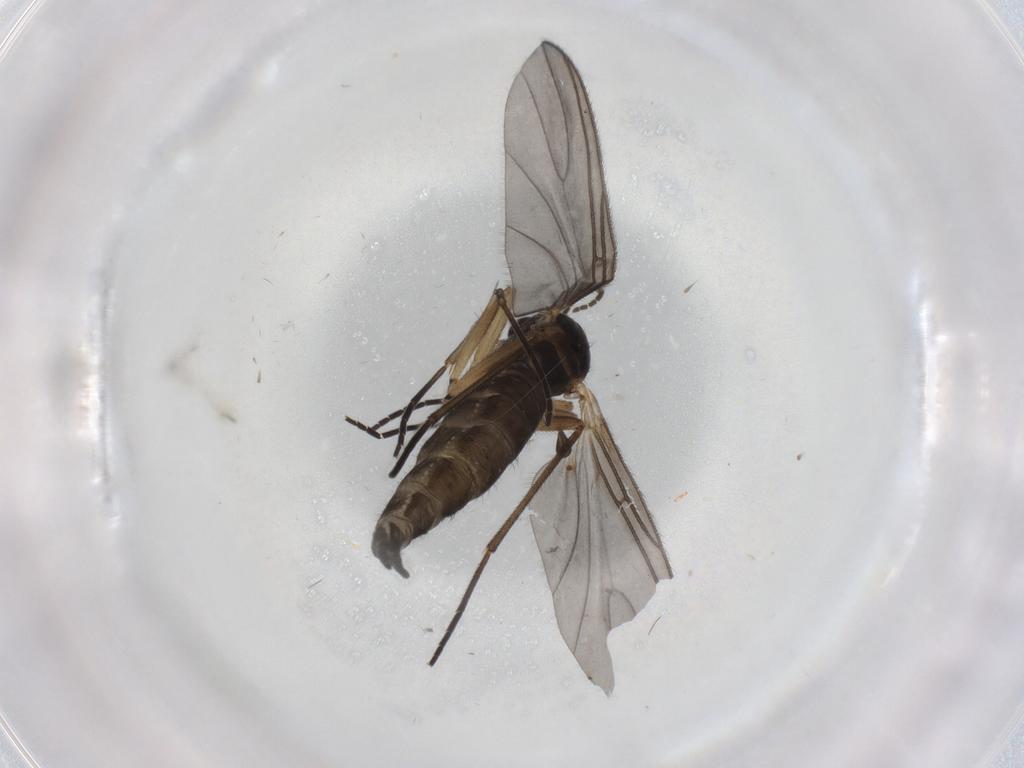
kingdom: Animalia
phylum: Arthropoda
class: Insecta
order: Diptera
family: Sciaridae
